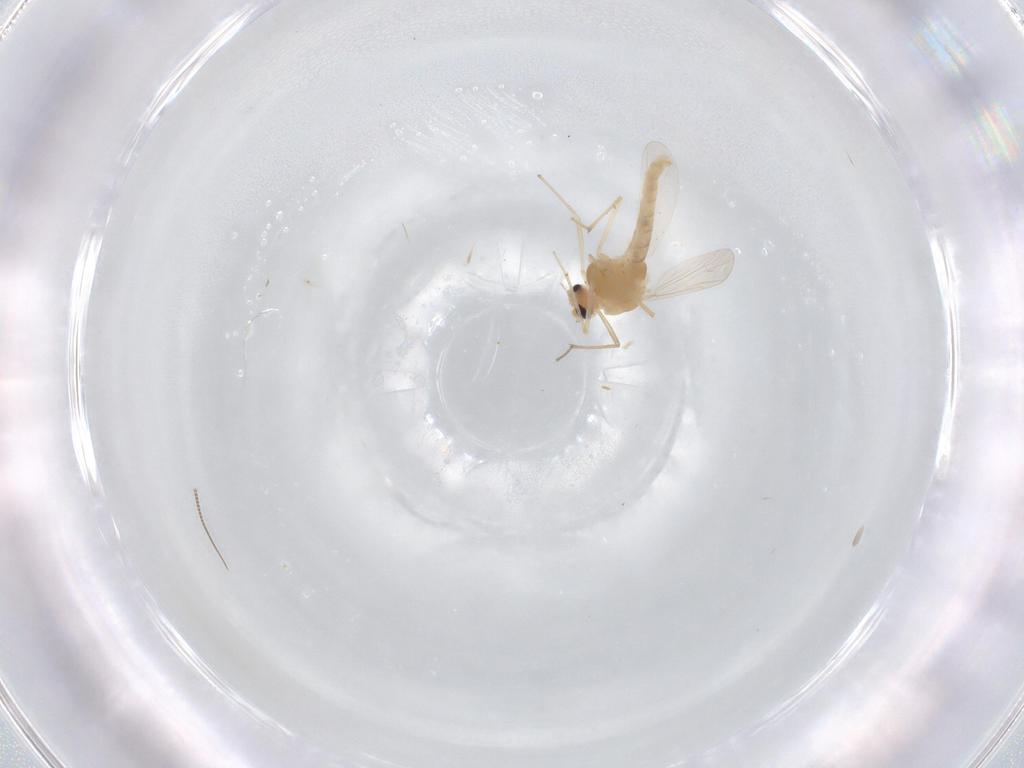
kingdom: Animalia
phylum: Arthropoda
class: Insecta
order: Diptera
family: Chironomidae
